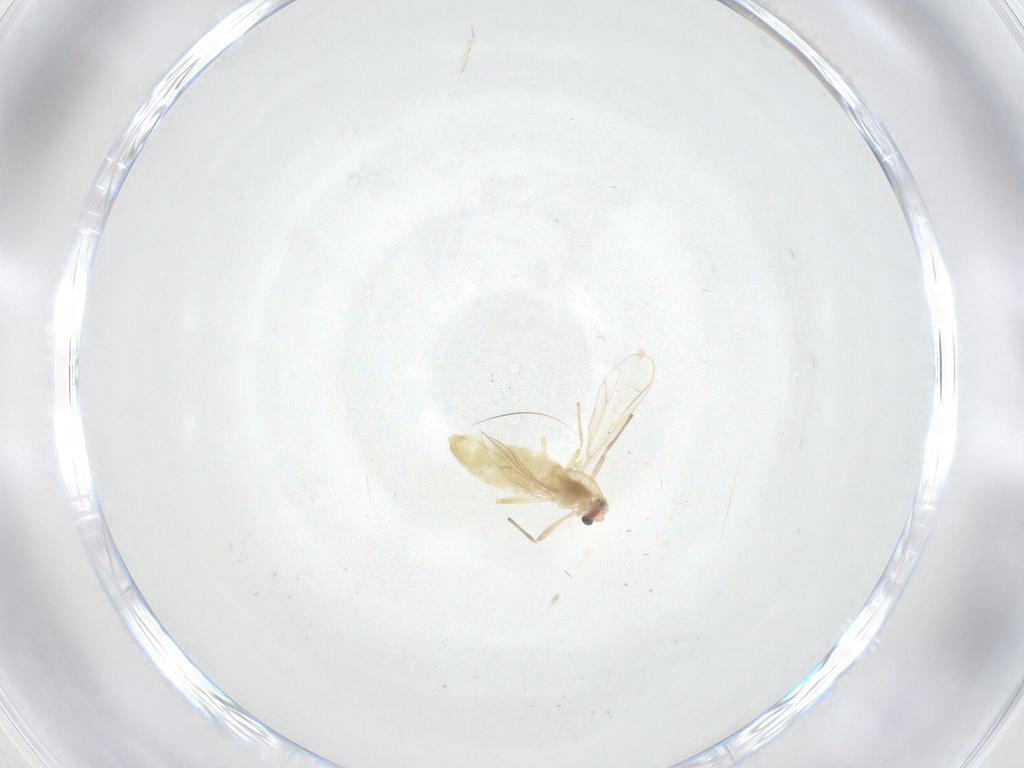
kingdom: Animalia
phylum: Arthropoda
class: Insecta
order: Diptera
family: Chironomidae
